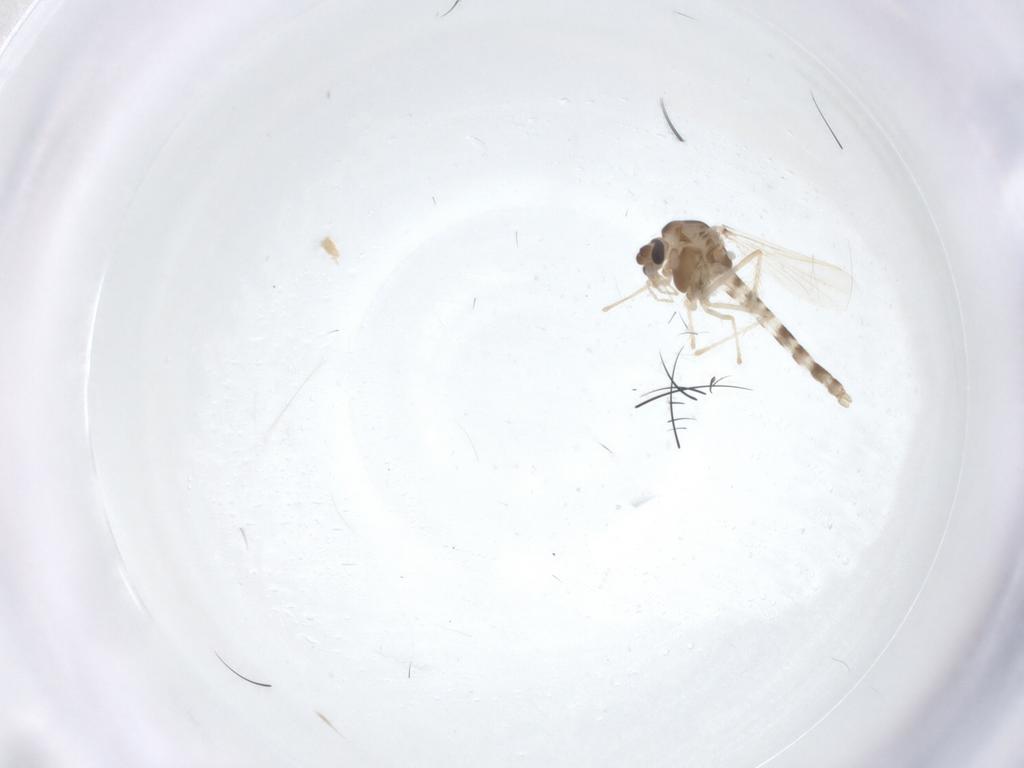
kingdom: Animalia
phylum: Arthropoda
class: Insecta
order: Diptera
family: Chironomidae
